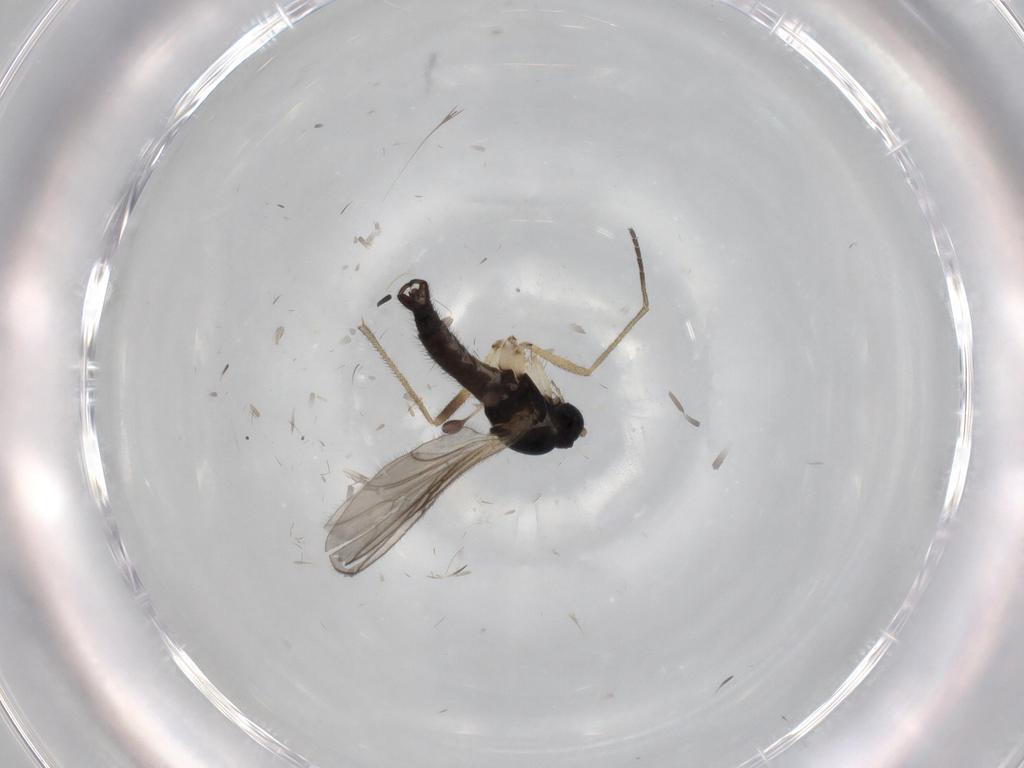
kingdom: Animalia
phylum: Arthropoda
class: Insecta
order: Diptera
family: Sciaridae
